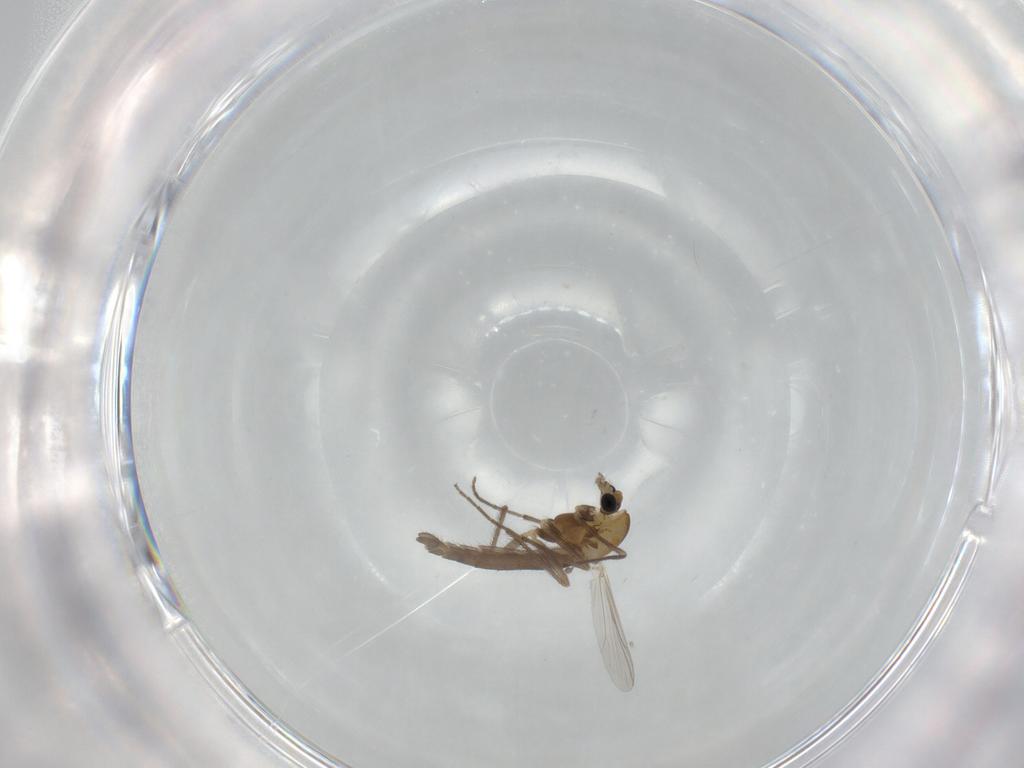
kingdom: Animalia
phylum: Arthropoda
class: Insecta
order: Diptera
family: Chironomidae
